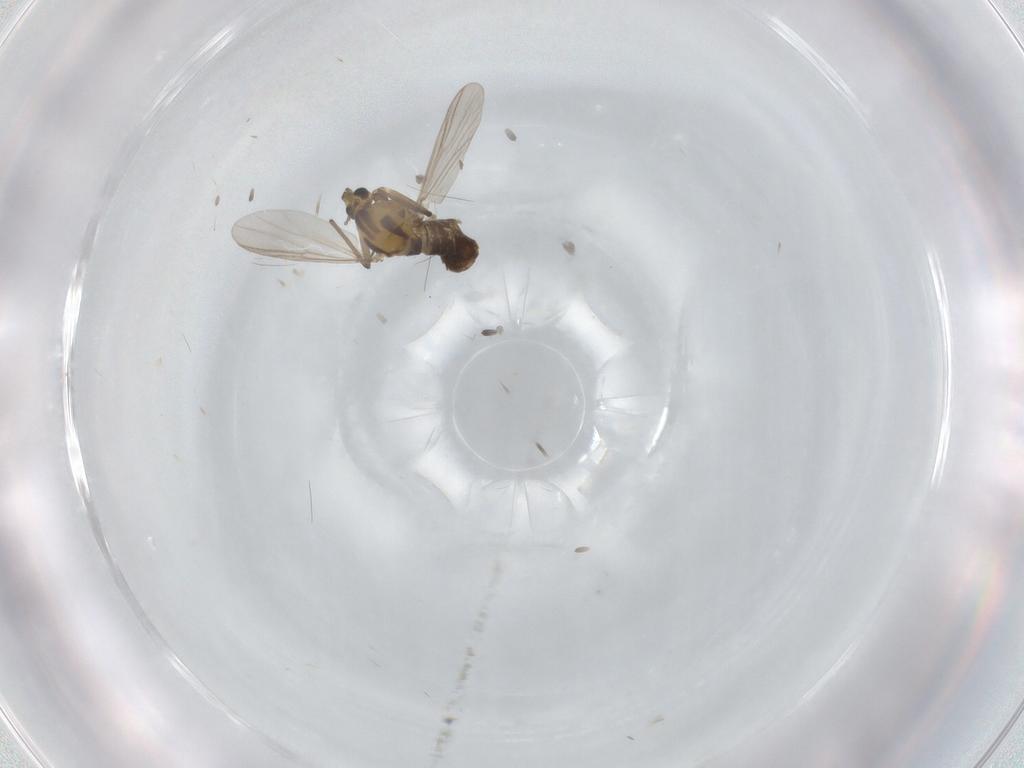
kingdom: Animalia
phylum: Arthropoda
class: Insecta
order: Diptera
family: Chironomidae
